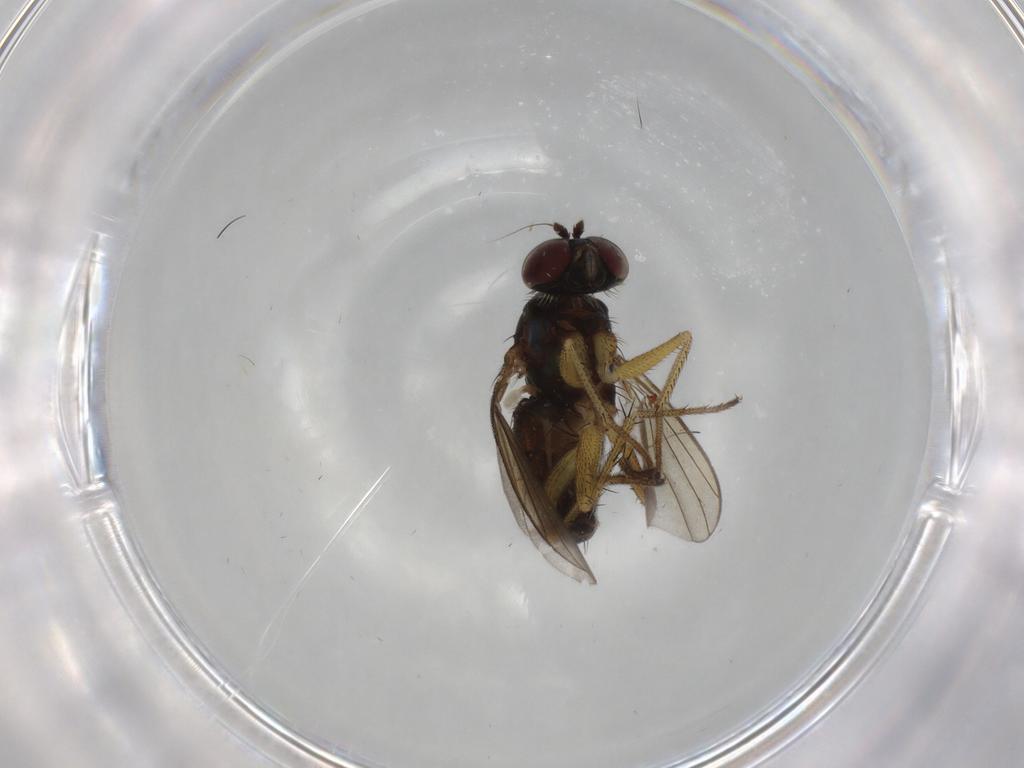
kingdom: Animalia
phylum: Arthropoda
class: Insecta
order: Diptera
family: Dolichopodidae
